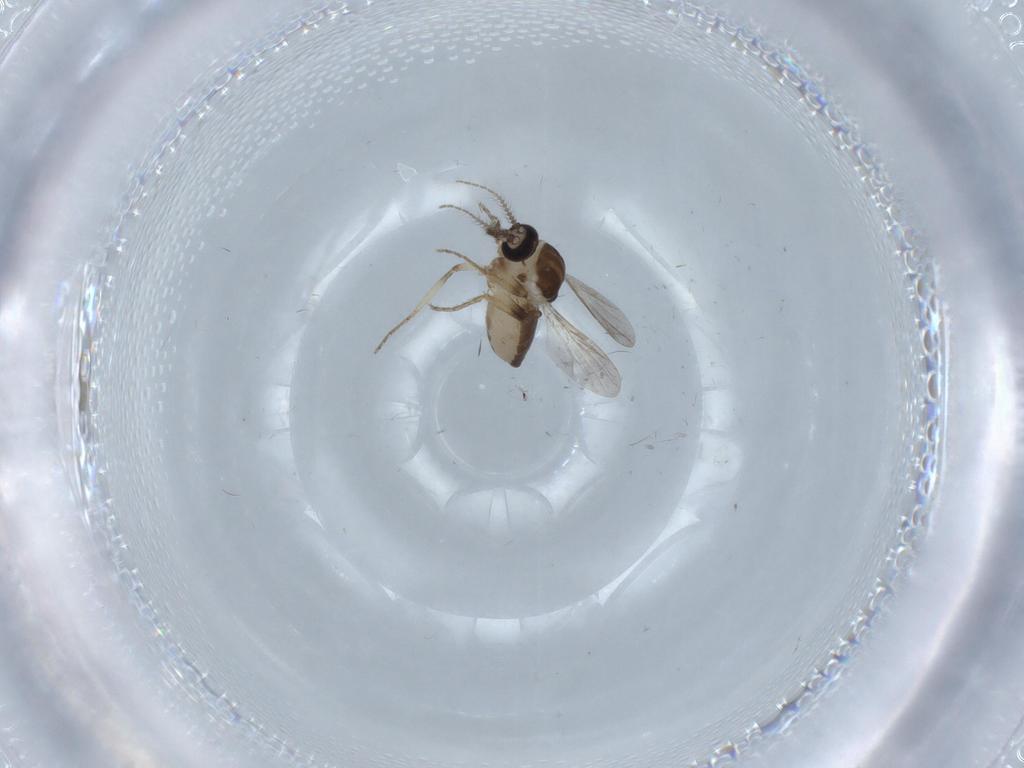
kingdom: Animalia
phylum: Arthropoda
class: Insecta
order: Diptera
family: Ceratopogonidae
